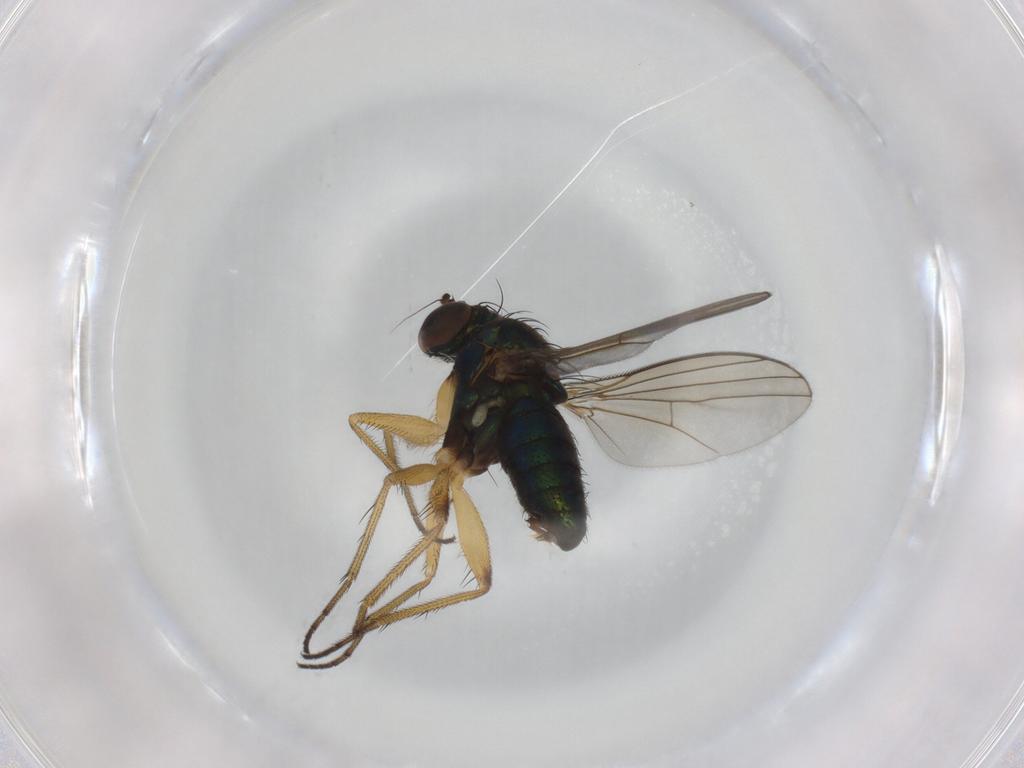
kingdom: Animalia
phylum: Arthropoda
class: Insecta
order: Diptera
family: Dolichopodidae
